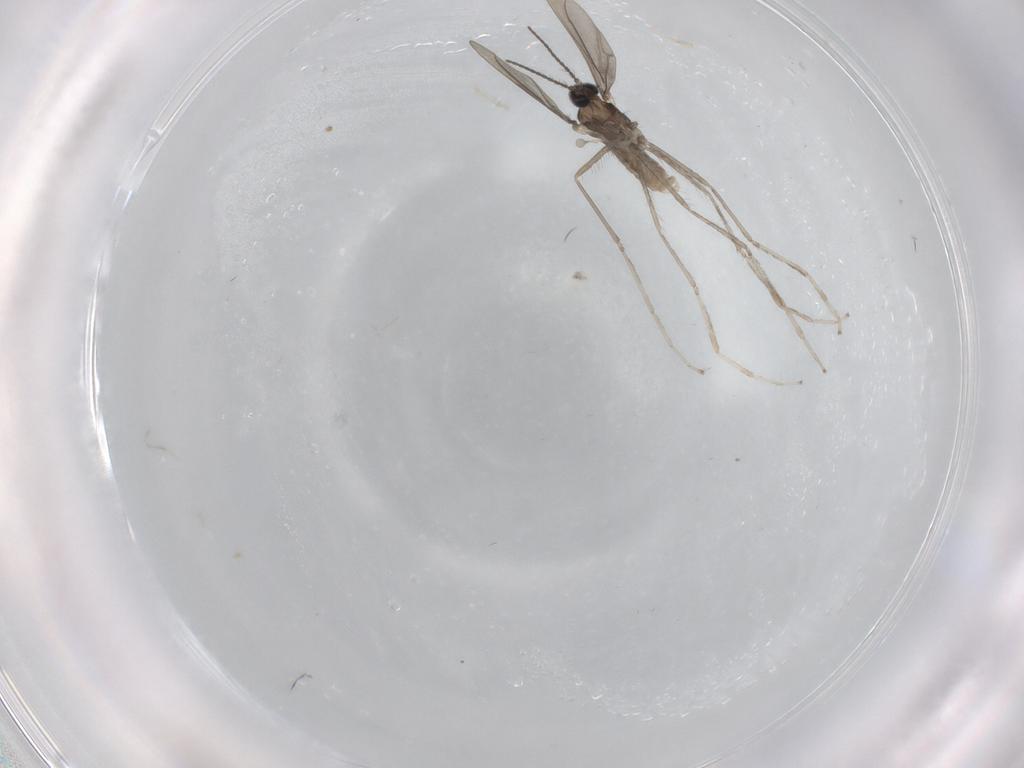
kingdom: Animalia
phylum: Arthropoda
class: Insecta
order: Diptera
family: Cecidomyiidae
